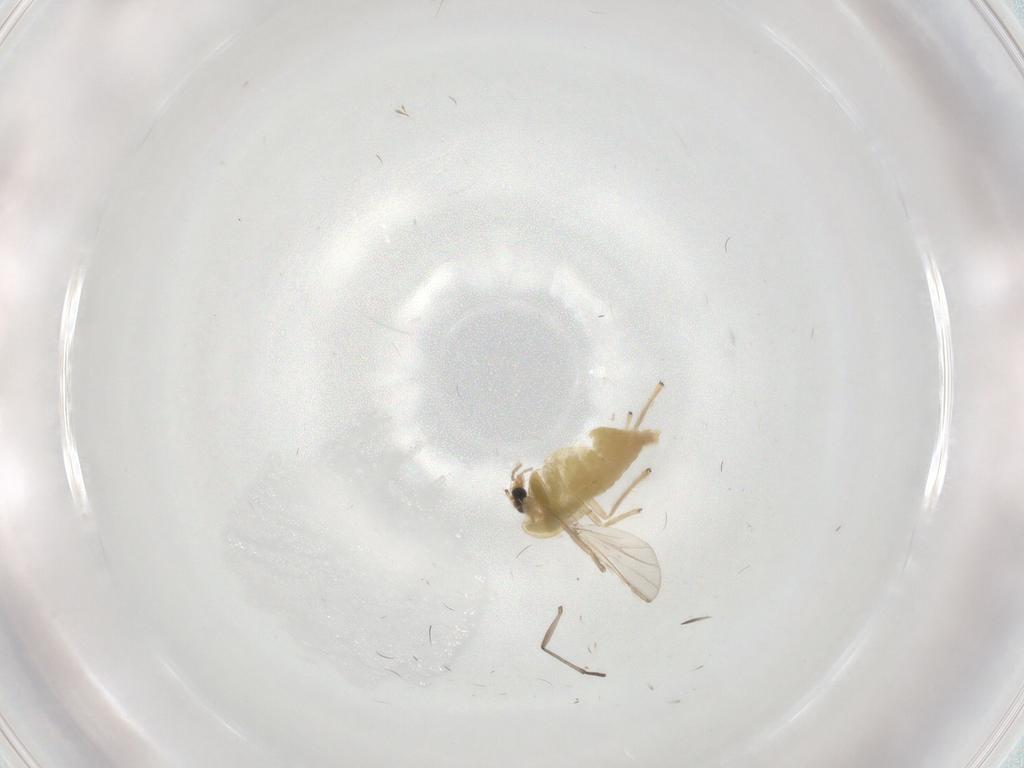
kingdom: Animalia
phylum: Arthropoda
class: Insecta
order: Diptera
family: Chironomidae
